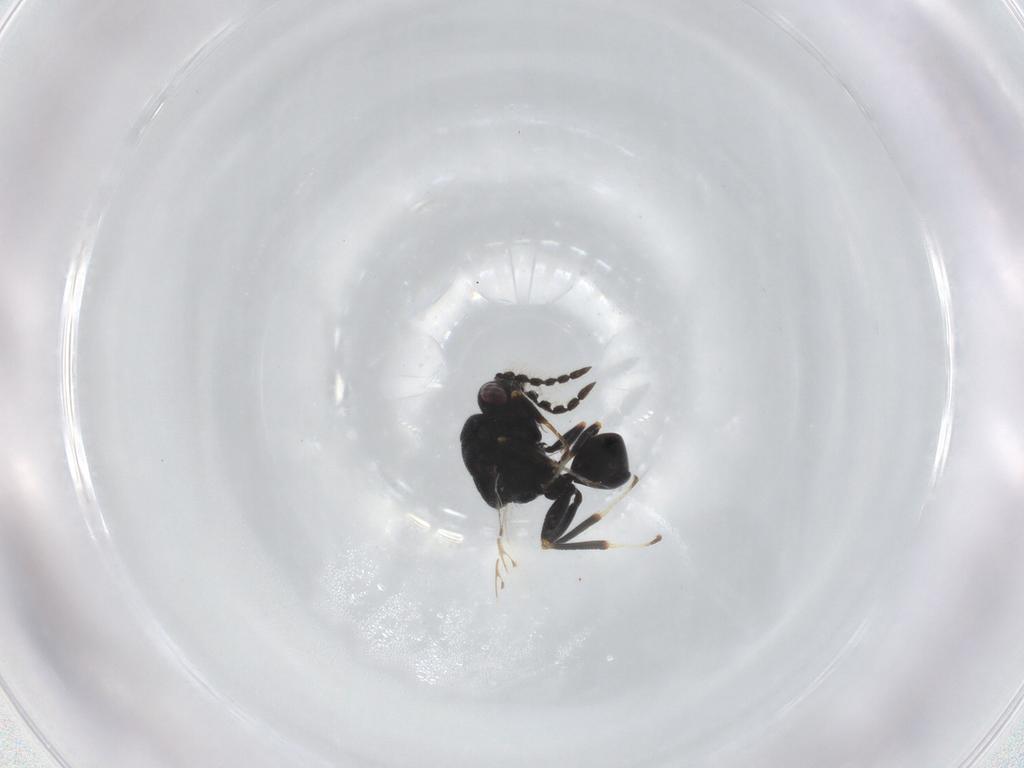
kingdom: Animalia
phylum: Arthropoda
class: Insecta
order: Hymenoptera
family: Eurytomidae
